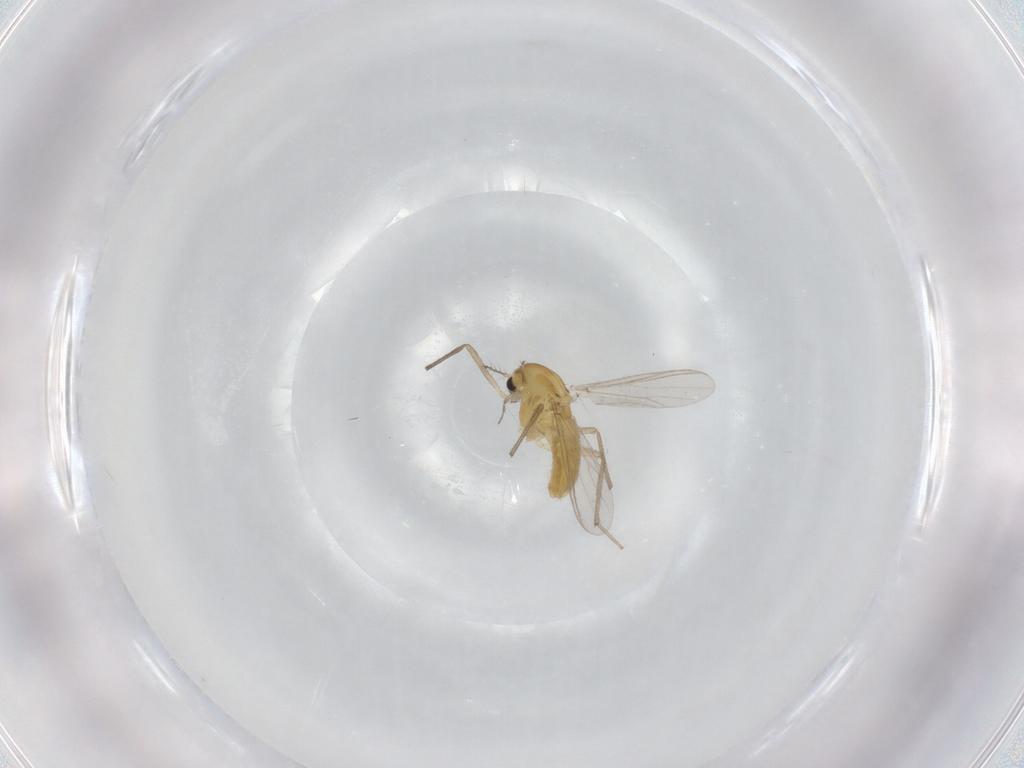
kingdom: Animalia
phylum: Arthropoda
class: Insecta
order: Diptera
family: Chironomidae
